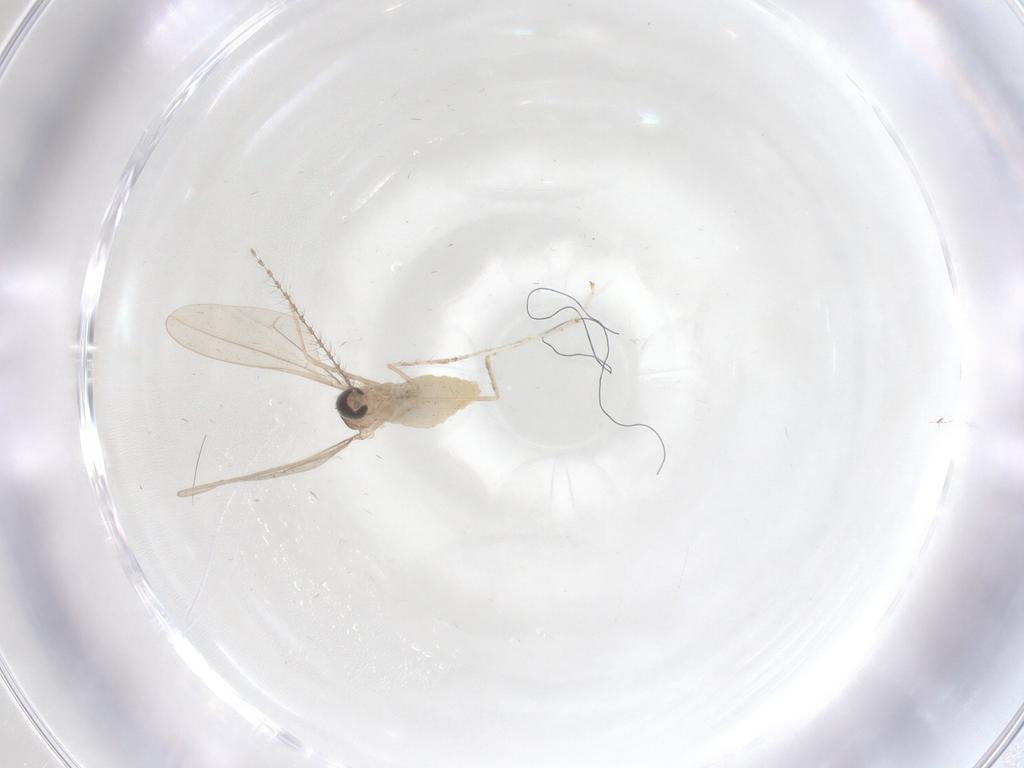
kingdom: Animalia
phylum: Arthropoda
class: Insecta
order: Diptera
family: Cecidomyiidae
